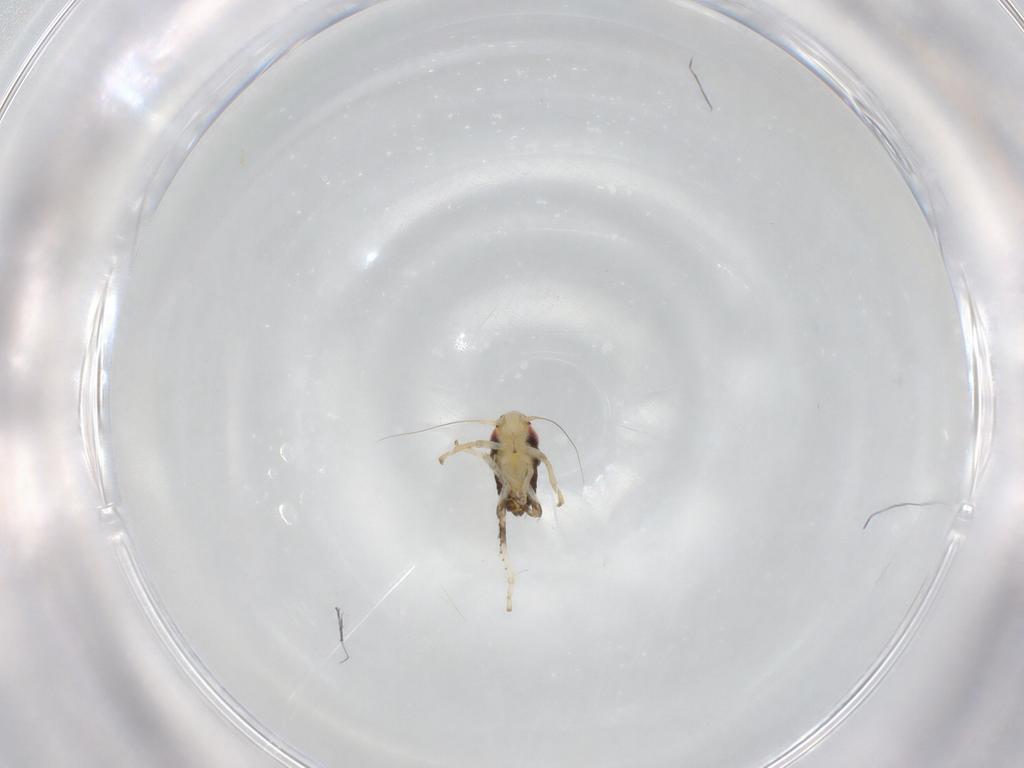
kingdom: Animalia
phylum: Arthropoda
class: Insecta
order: Hemiptera
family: Cicadellidae
